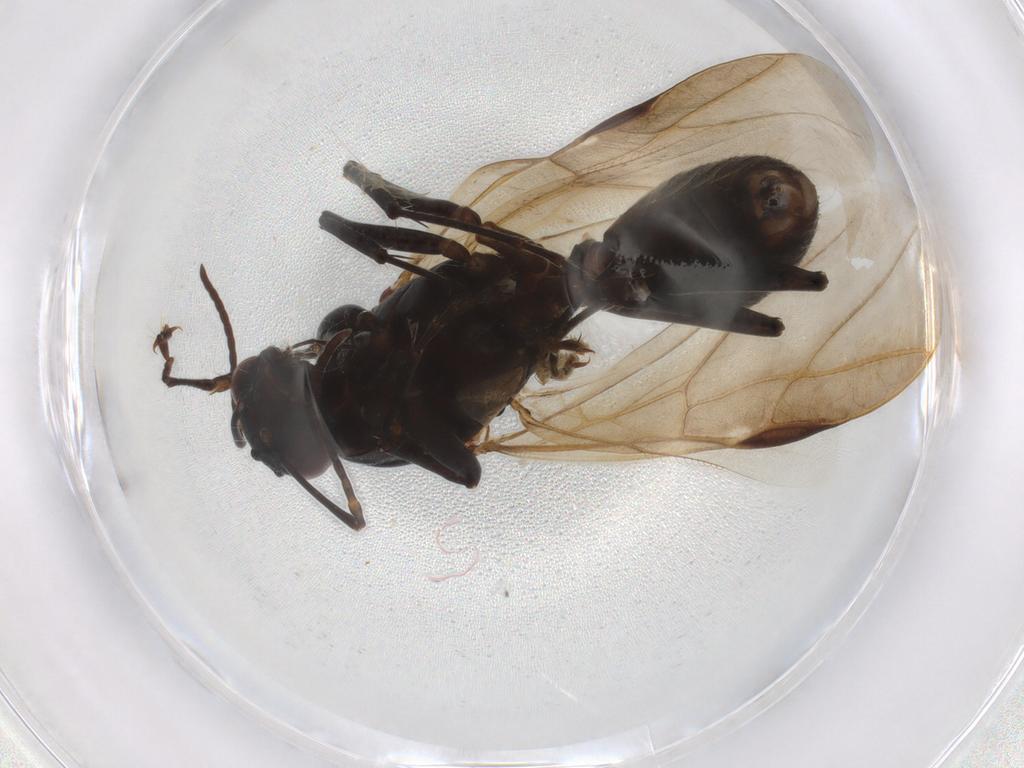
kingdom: Animalia
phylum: Arthropoda
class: Insecta
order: Hymenoptera
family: Formicidae
